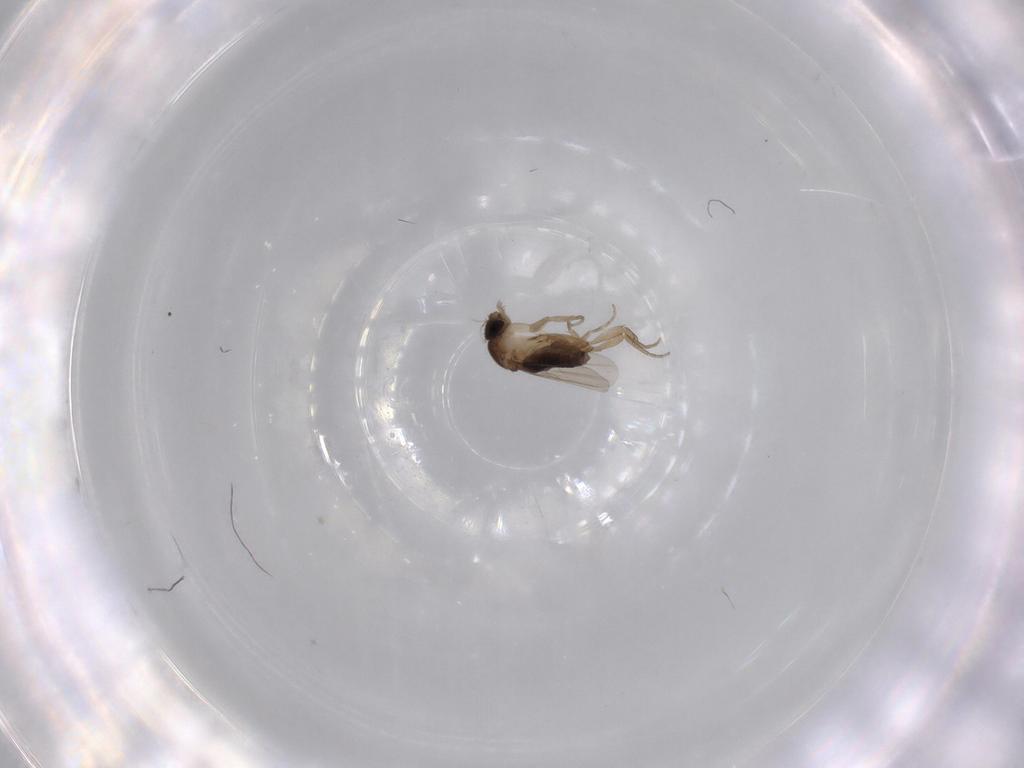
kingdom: Animalia
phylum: Arthropoda
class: Insecta
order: Diptera
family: Phoridae
